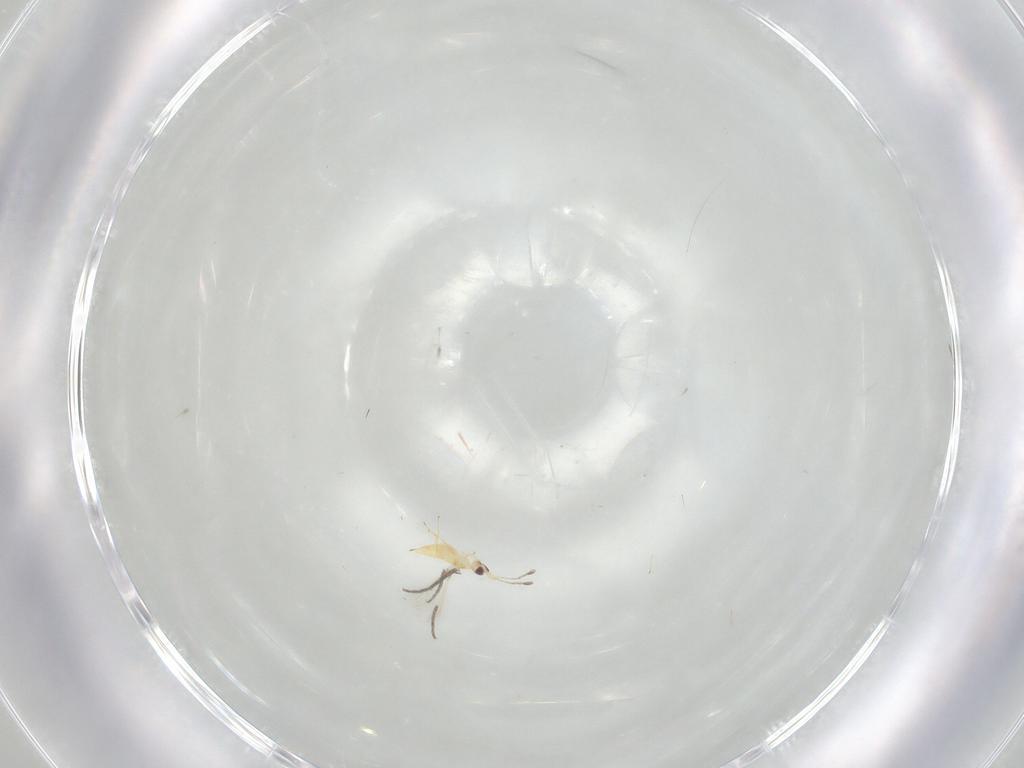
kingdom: Animalia
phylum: Arthropoda
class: Insecta
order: Hymenoptera
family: Mymaridae
